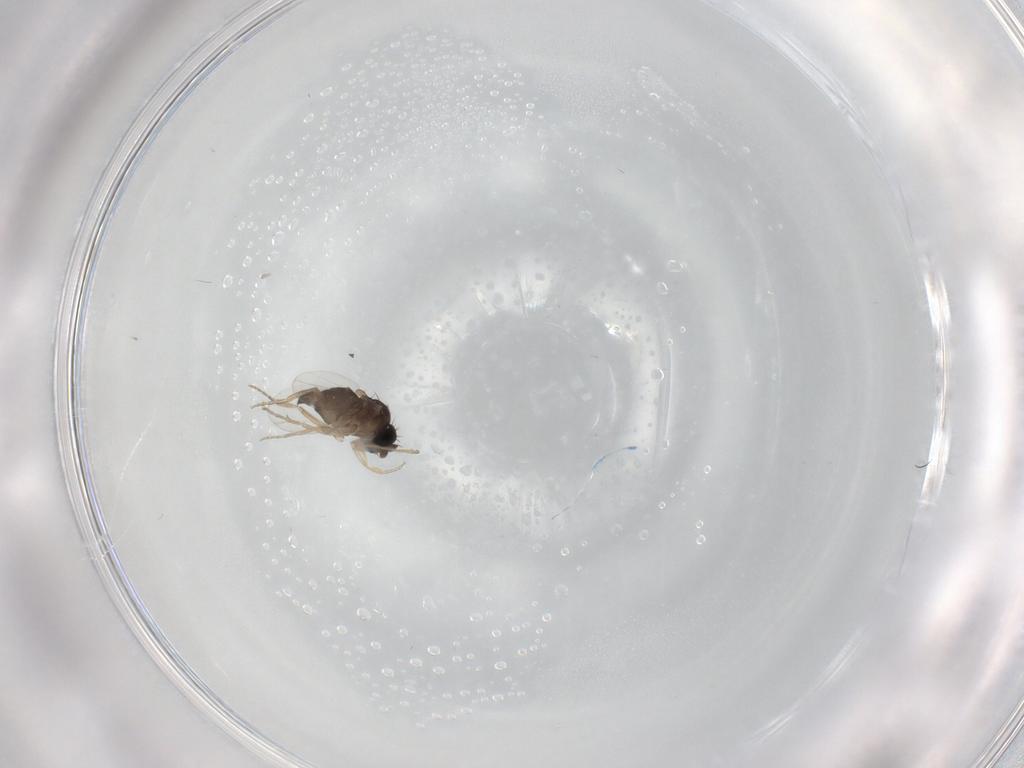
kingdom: Animalia
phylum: Arthropoda
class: Insecta
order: Diptera
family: Phoridae
